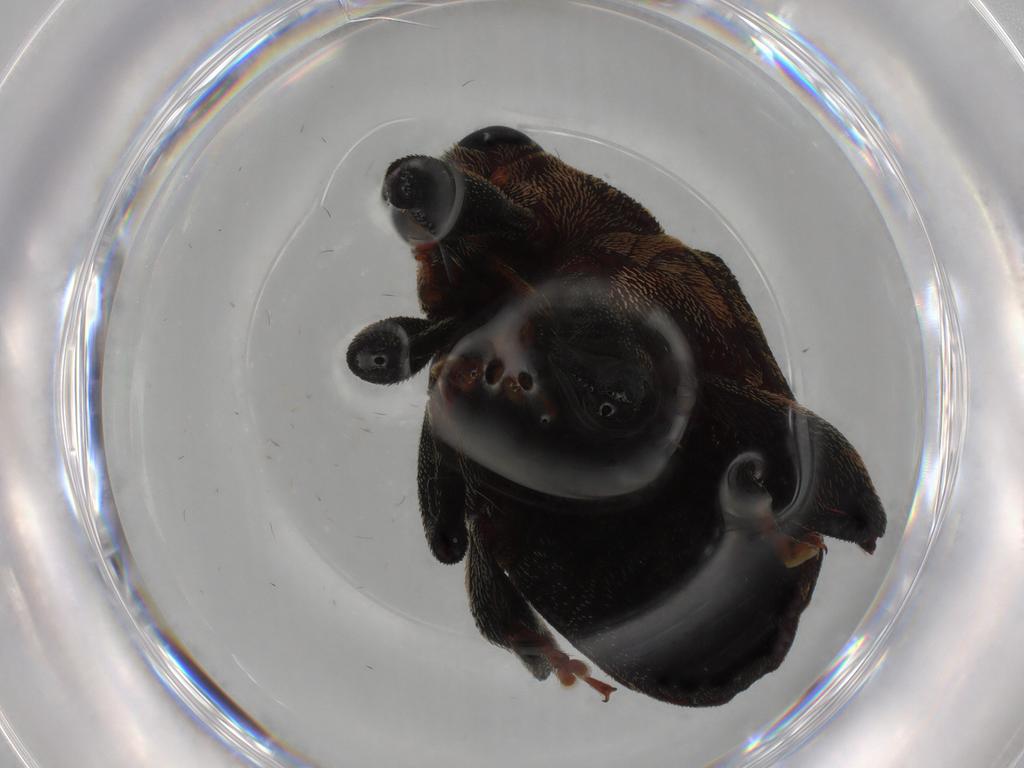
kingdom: Animalia
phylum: Arthropoda
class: Insecta
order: Coleoptera
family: Curculionidae
